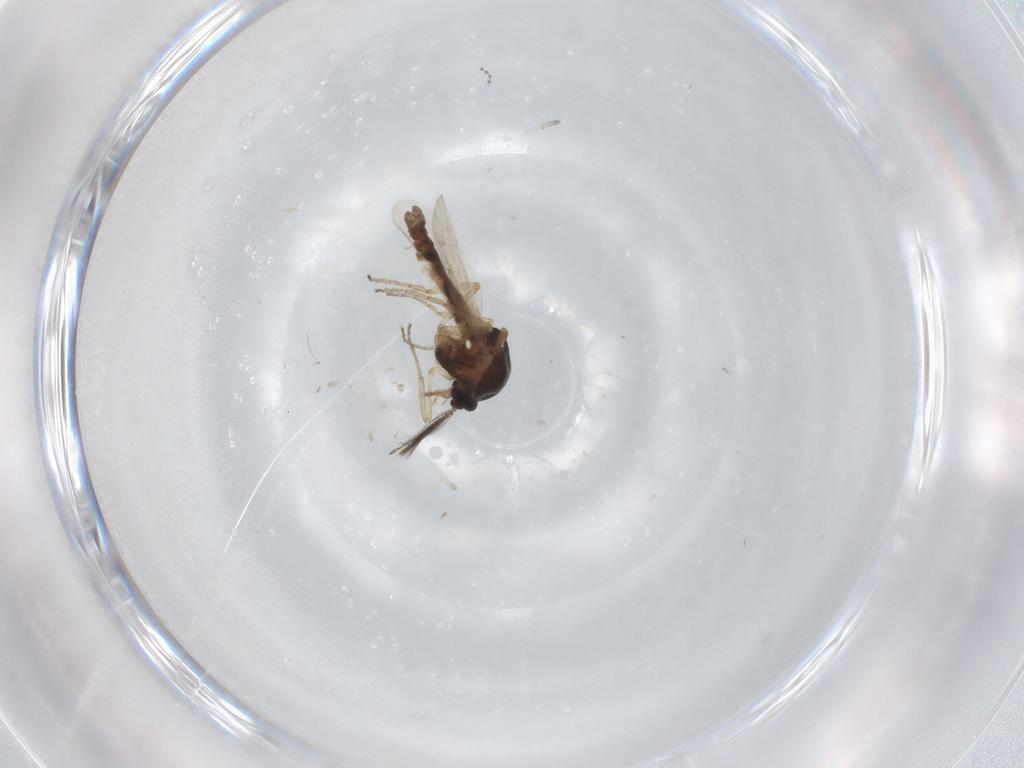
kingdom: Animalia
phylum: Arthropoda
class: Insecta
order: Diptera
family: Ceratopogonidae
